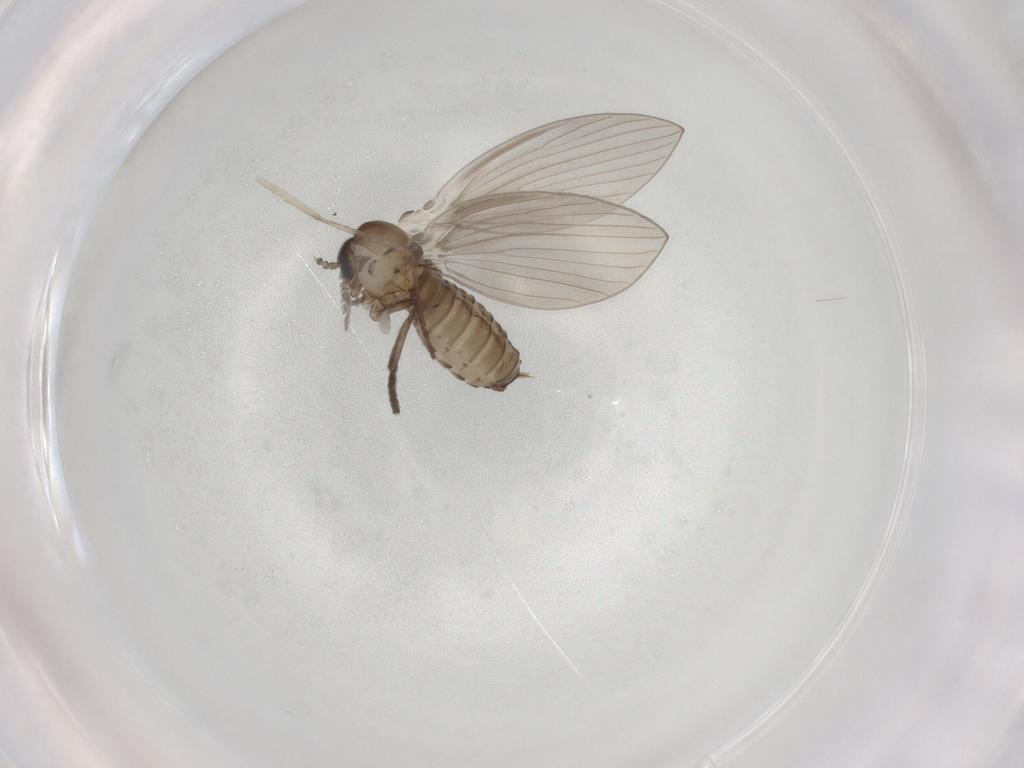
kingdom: Animalia
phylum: Arthropoda
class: Insecta
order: Diptera
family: Psychodidae
